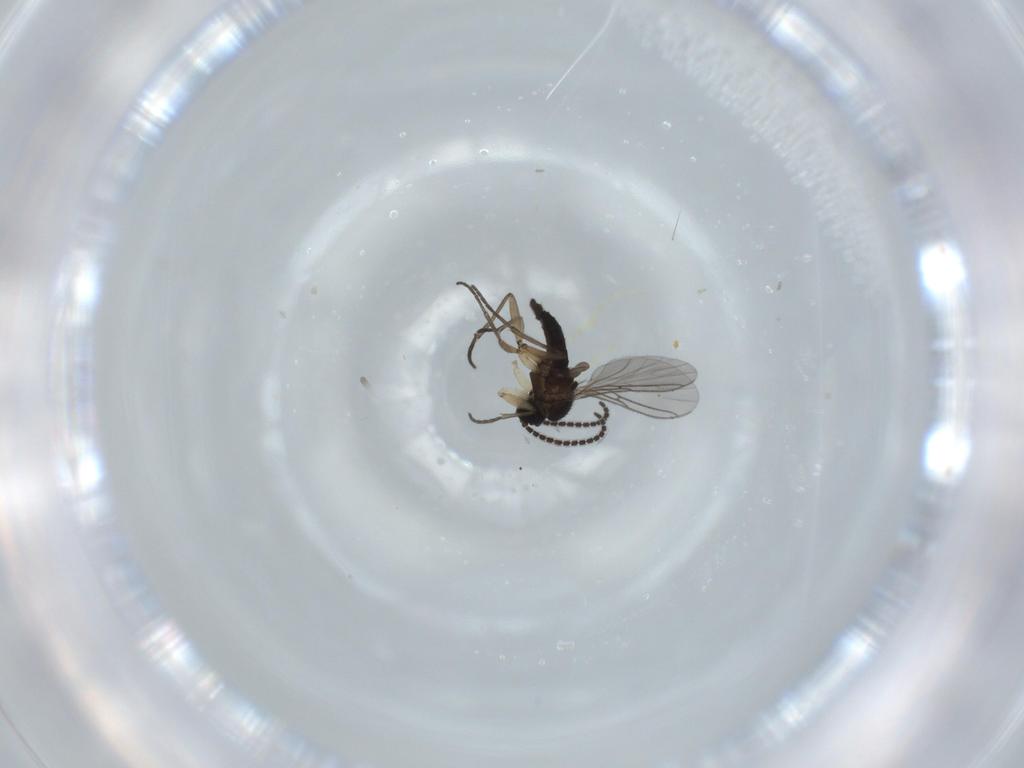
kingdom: Animalia
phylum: Arthropoda
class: Insecta
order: Diptera
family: Sciaridae
